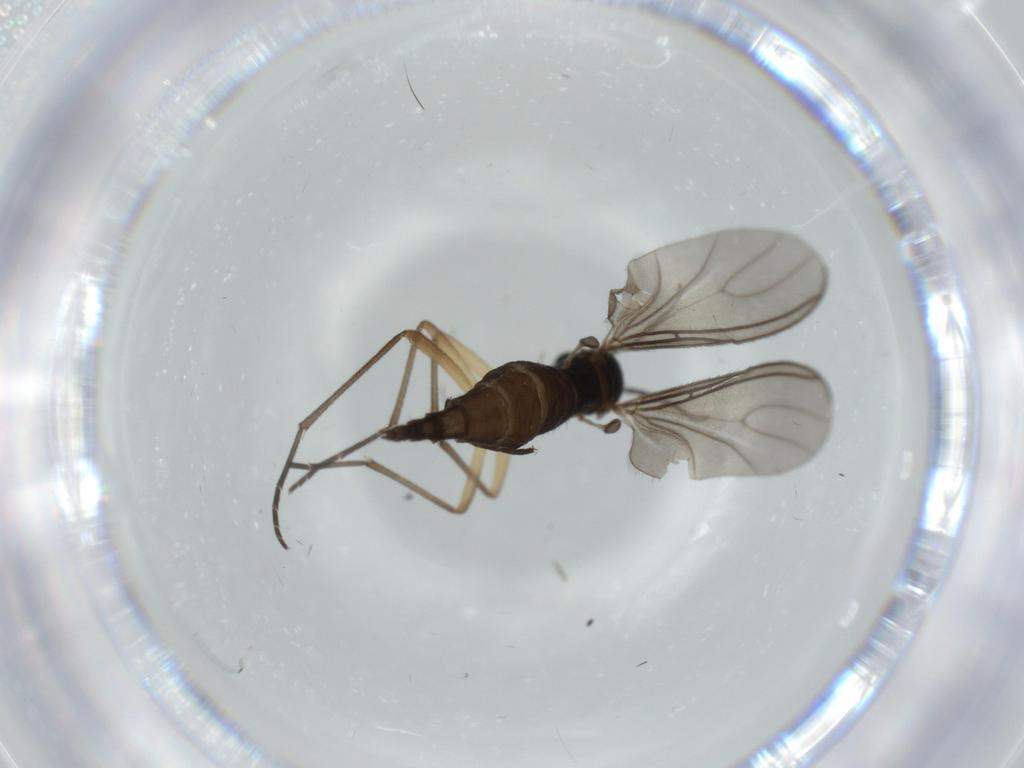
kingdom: Animalia
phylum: Arthropoda
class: Insecta
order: Diptera
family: Sciaridae
